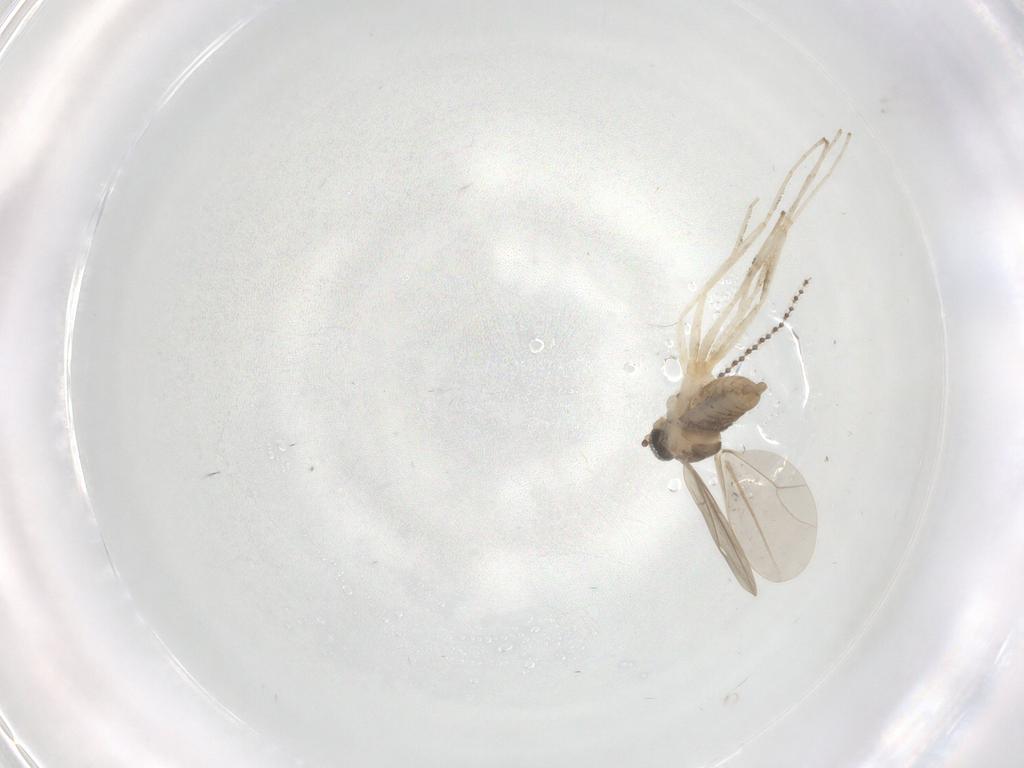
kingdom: Animalia
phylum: Arthropoda
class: Insecta
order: Diptera
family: Sciaridae
